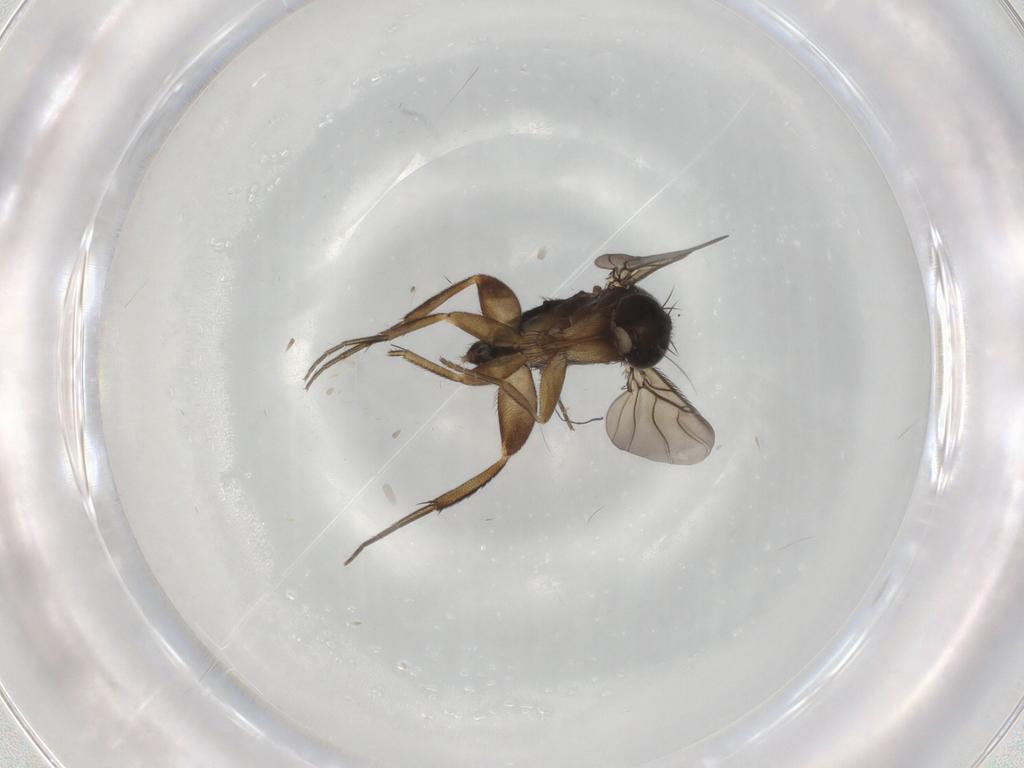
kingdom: Animalia
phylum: Arthropoda
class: Insecta
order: Diptera
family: Phoridae
